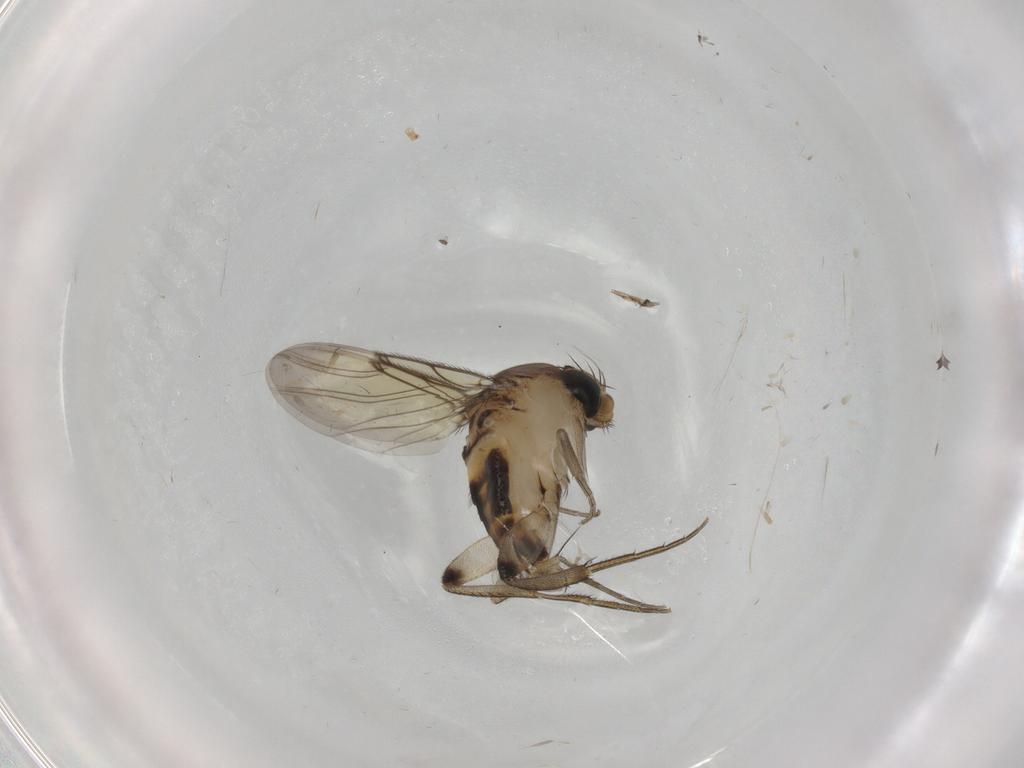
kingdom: Animalia
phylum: Arthropoda
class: Insecta
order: Diptera
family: Phoridae
